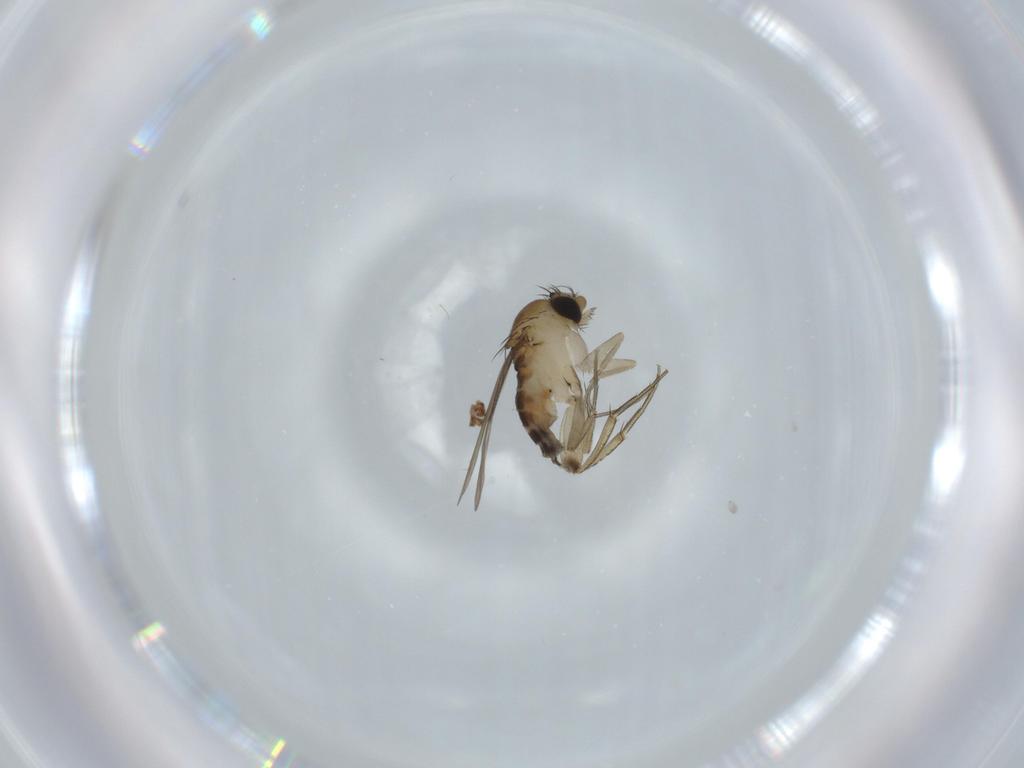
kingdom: Animalia
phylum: Arthropoda
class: Insecta
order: Diptera
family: Phoridae
